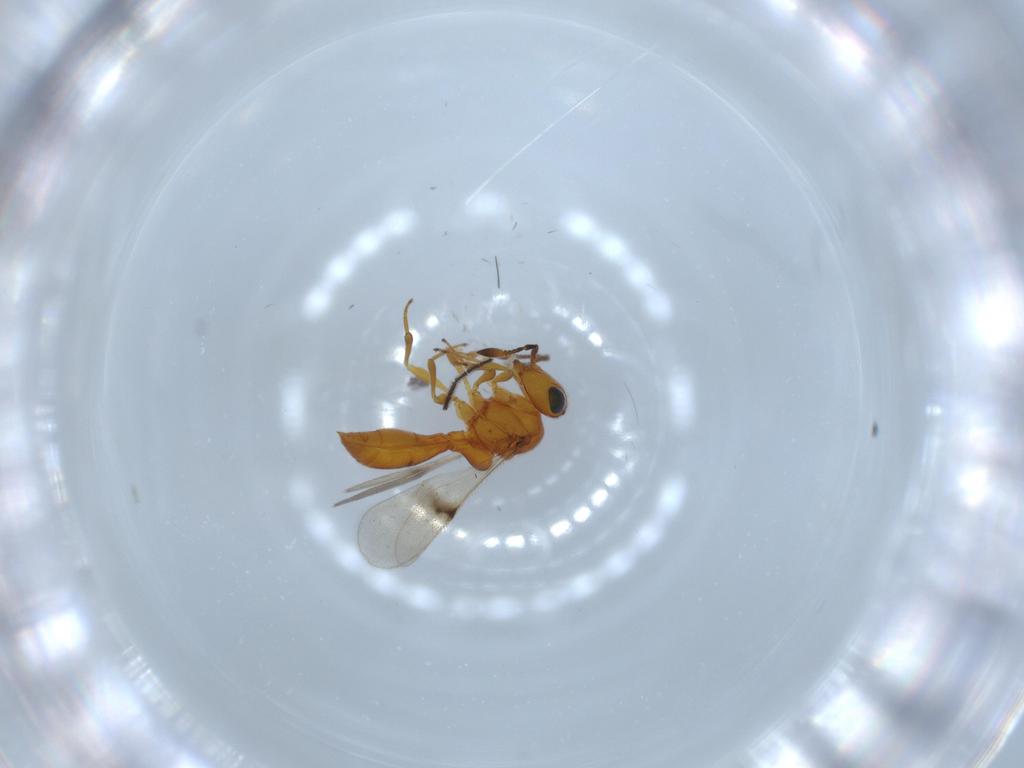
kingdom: Animalia
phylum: Arthropoda
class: Insecta
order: Hymenoptera
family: Scelionidae
